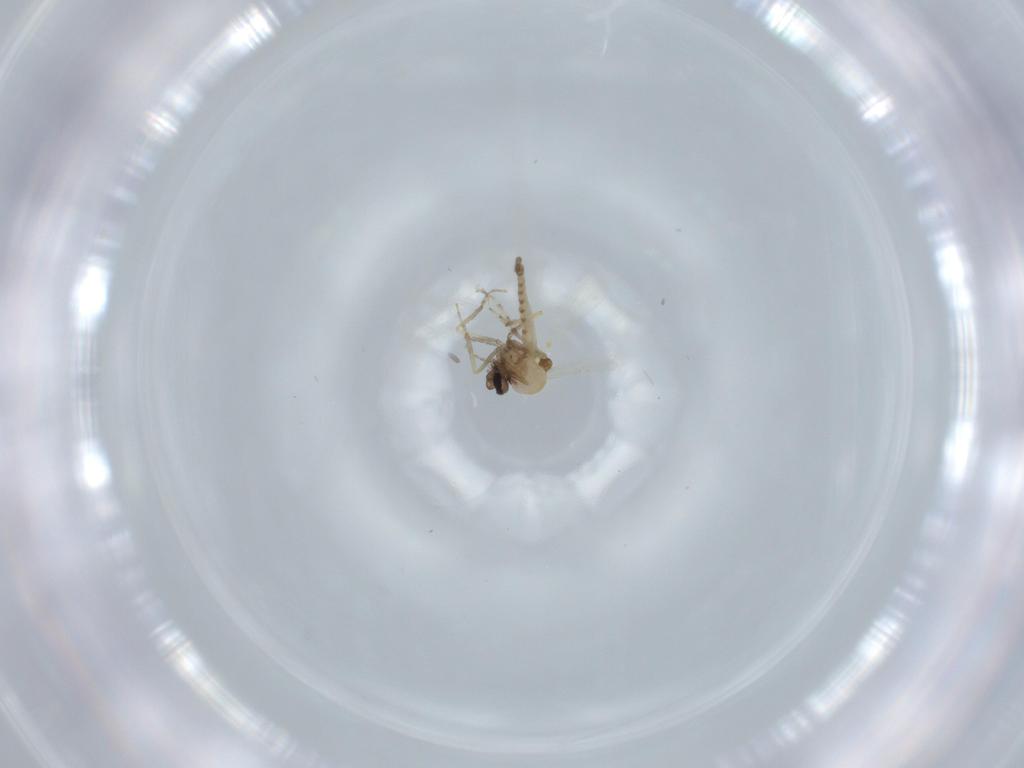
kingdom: Animalia
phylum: Arthropoda
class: Insecta
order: Diptera
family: Ceratopogonidae
